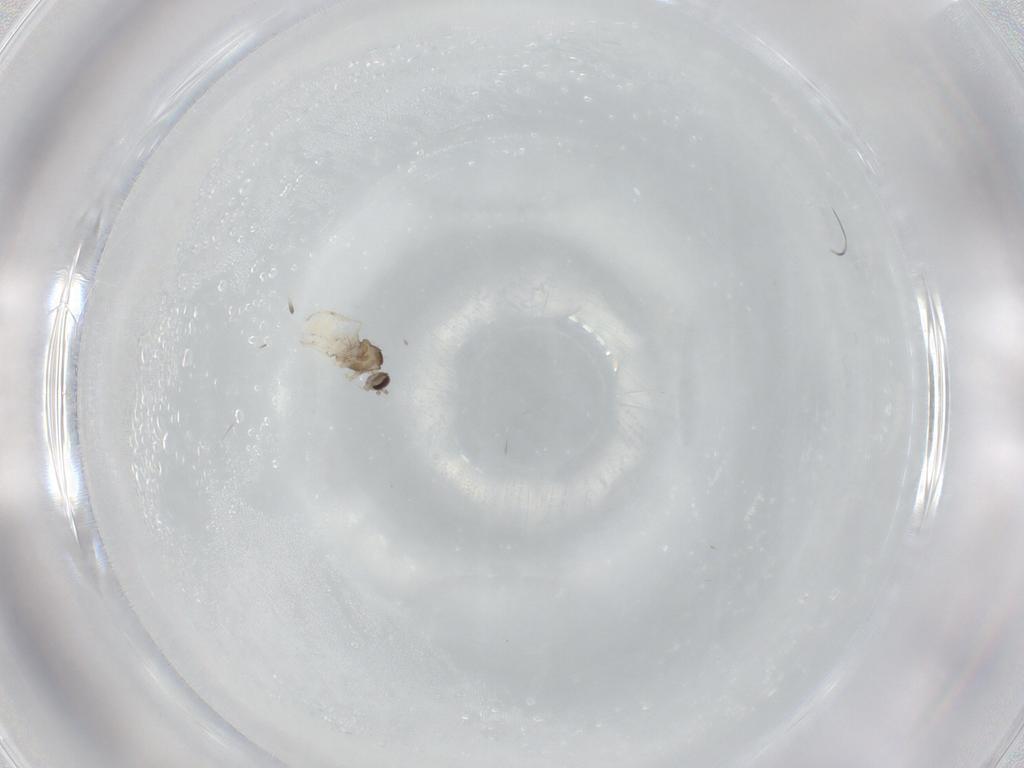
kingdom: Animalia
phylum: Arthropoda
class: Insecta
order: Diptera
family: Cecidomyiidae
